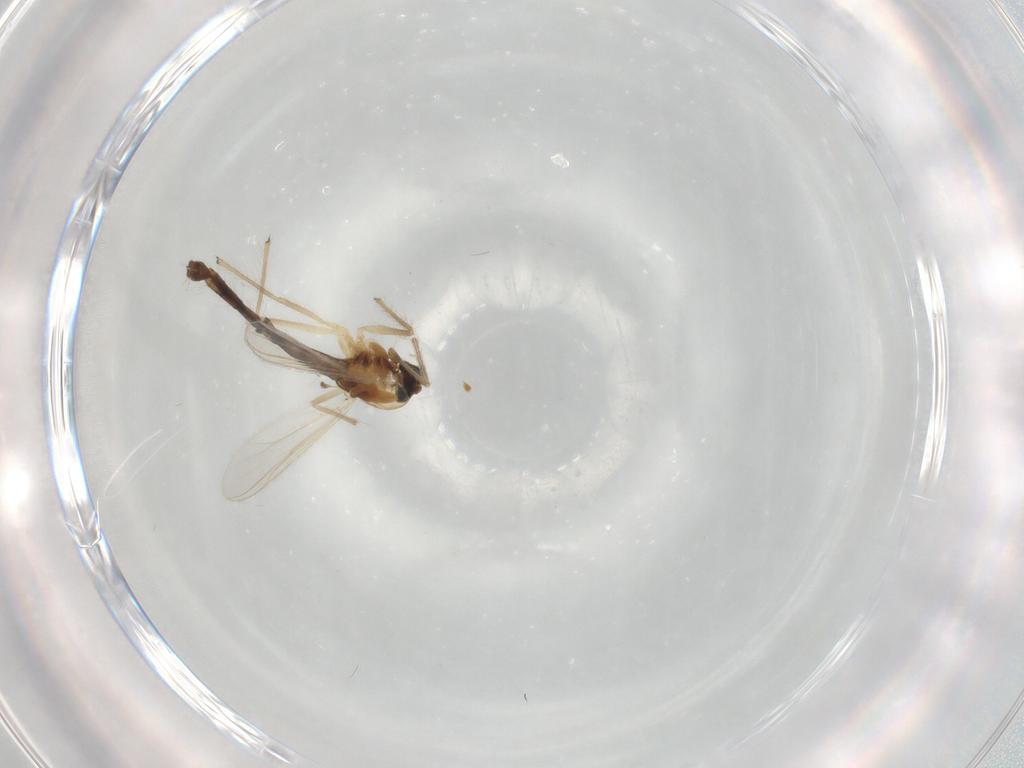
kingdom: Animalia
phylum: Arthropoda
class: Insecta
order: Diptera
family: Chironomidae
